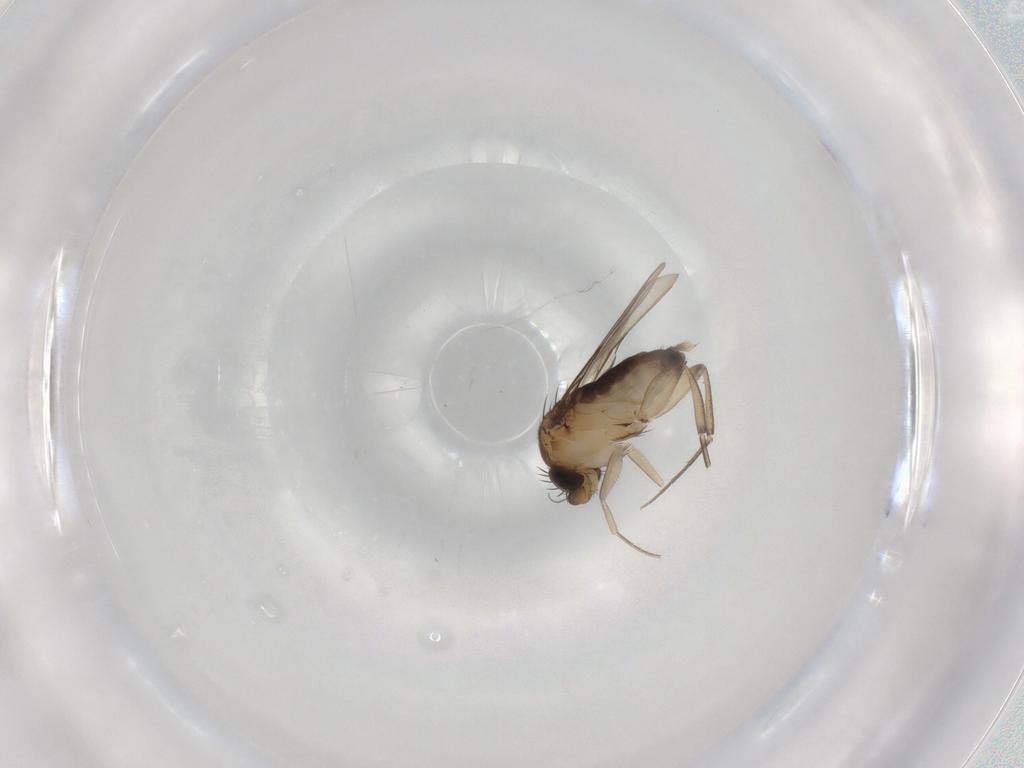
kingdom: Animalia
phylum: Arthropoda
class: Insecta
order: Diptera
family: Phoridae
